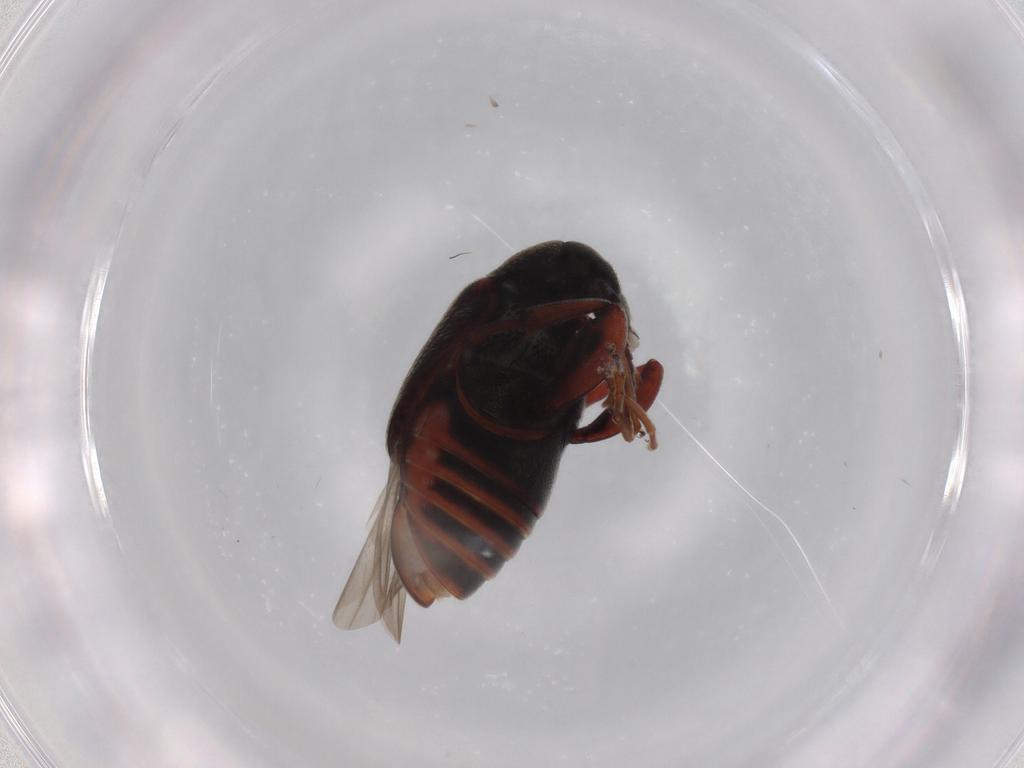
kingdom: Animalia
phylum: Arthropoda
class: Insecta
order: Coleoptera
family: Chrysomelidae
